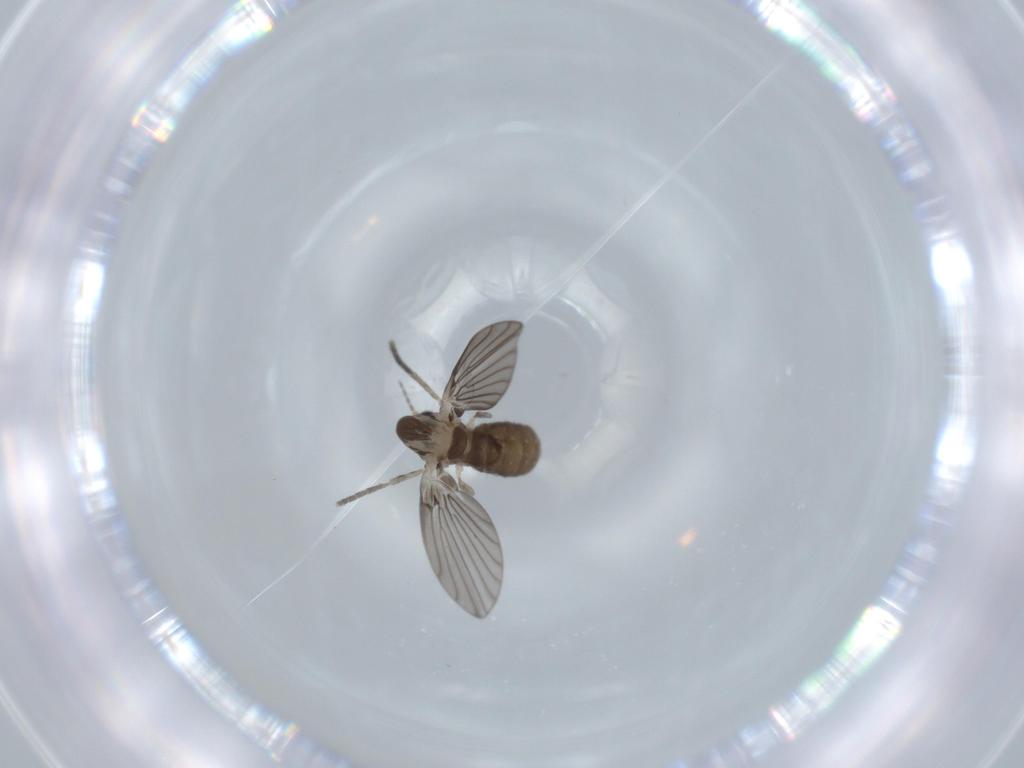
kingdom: Animalia
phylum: Arthropoda
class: Insecta
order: Diptera
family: Psychodidae
